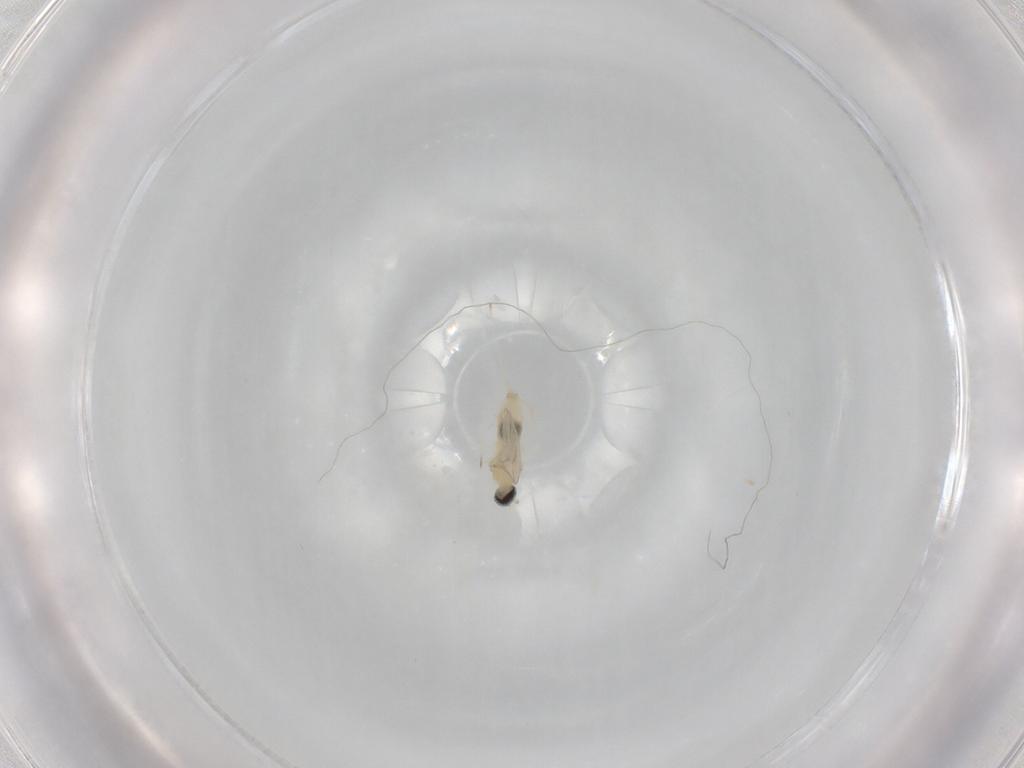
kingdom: Animalia
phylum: Arthropoda
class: Insecta
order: Diptera
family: Cecidomyiidae
